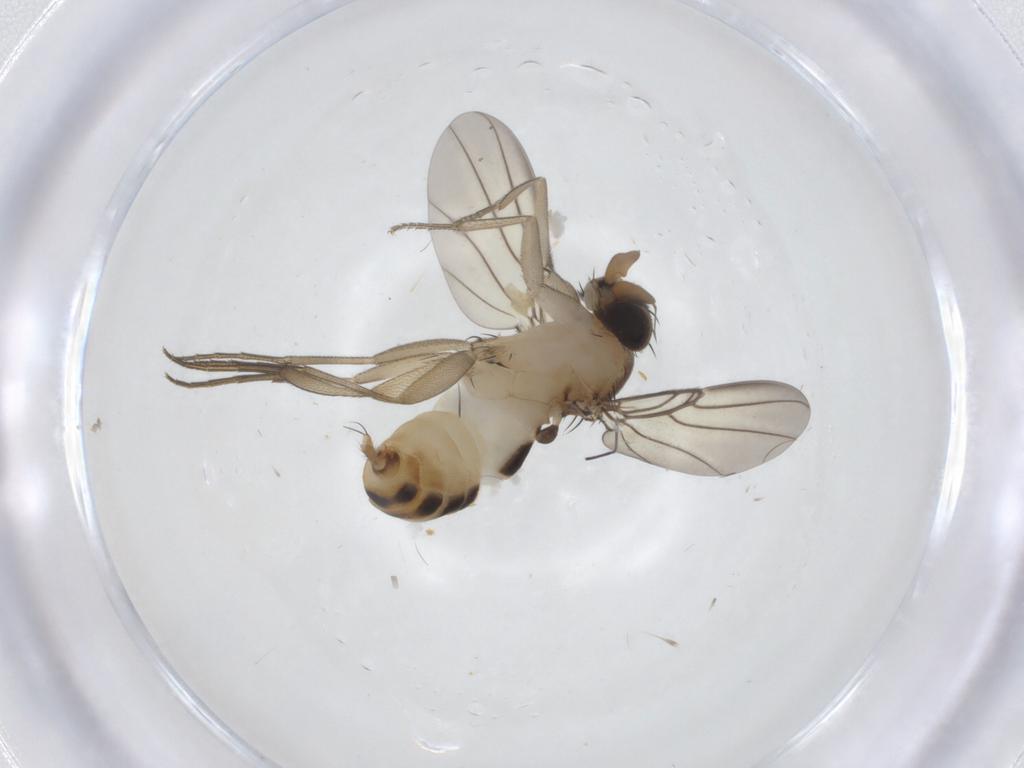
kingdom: Animalia
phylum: Arthropoda
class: Insecta
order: Diptera
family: Phoridae
